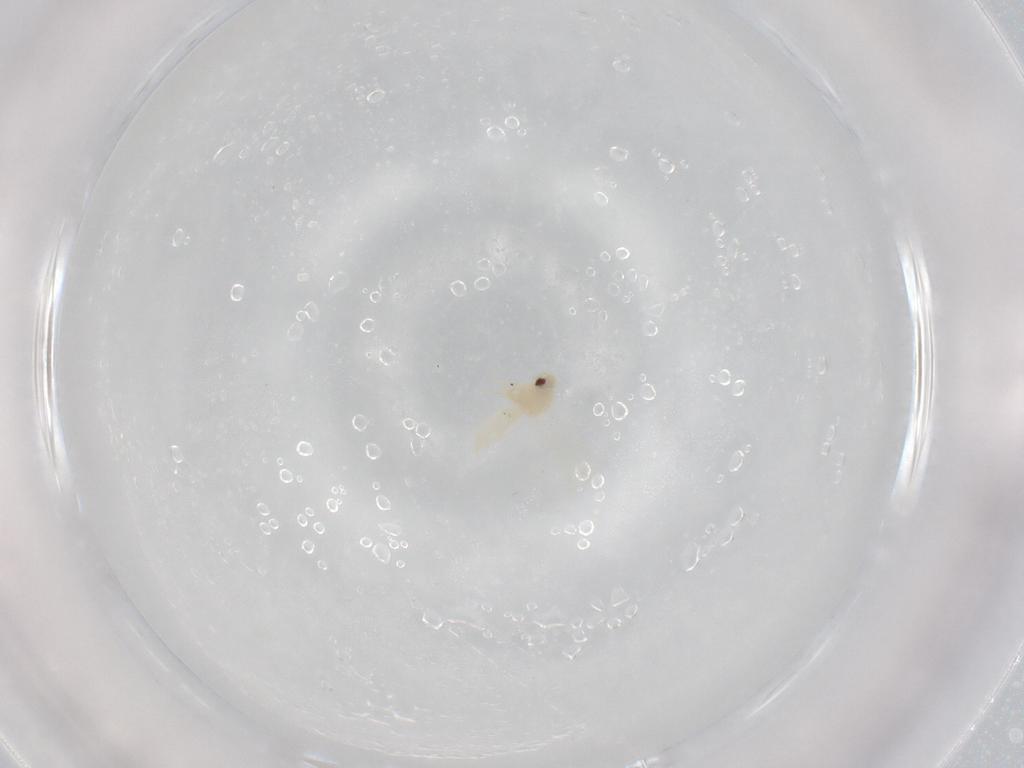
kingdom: Animalia
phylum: Arthropoda
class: Insecta
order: Hemiptera
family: Aleyrodidae
